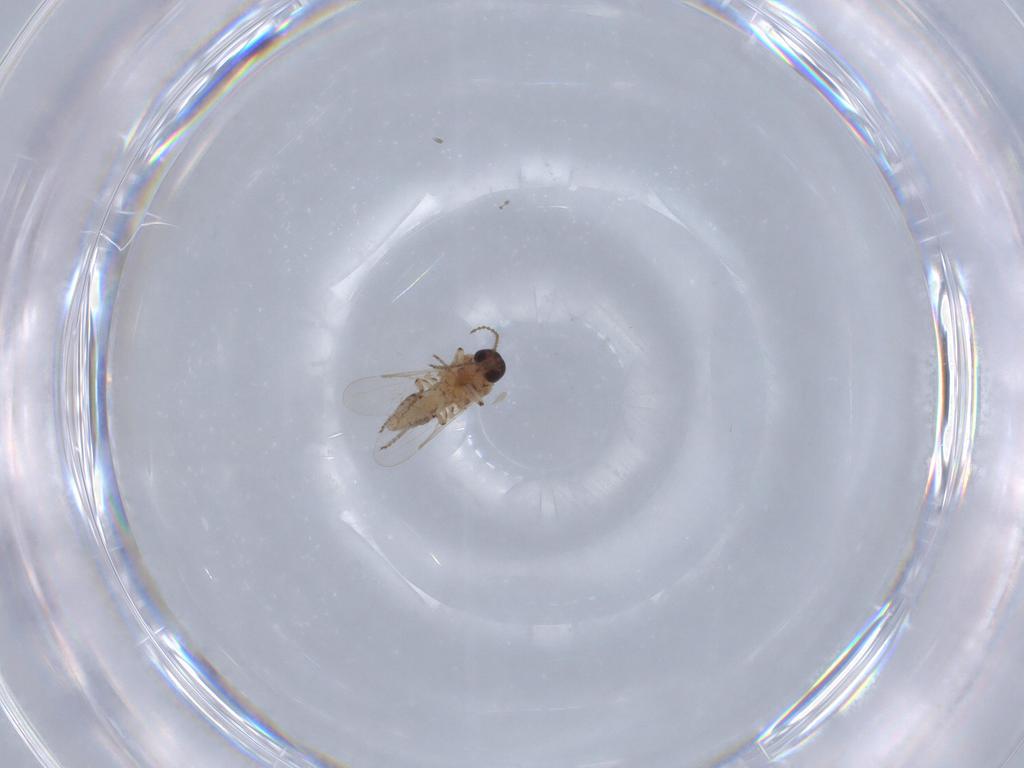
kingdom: Animalia
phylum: Arthropoda
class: Insecta
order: Diptera
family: Ceratopogonidae
